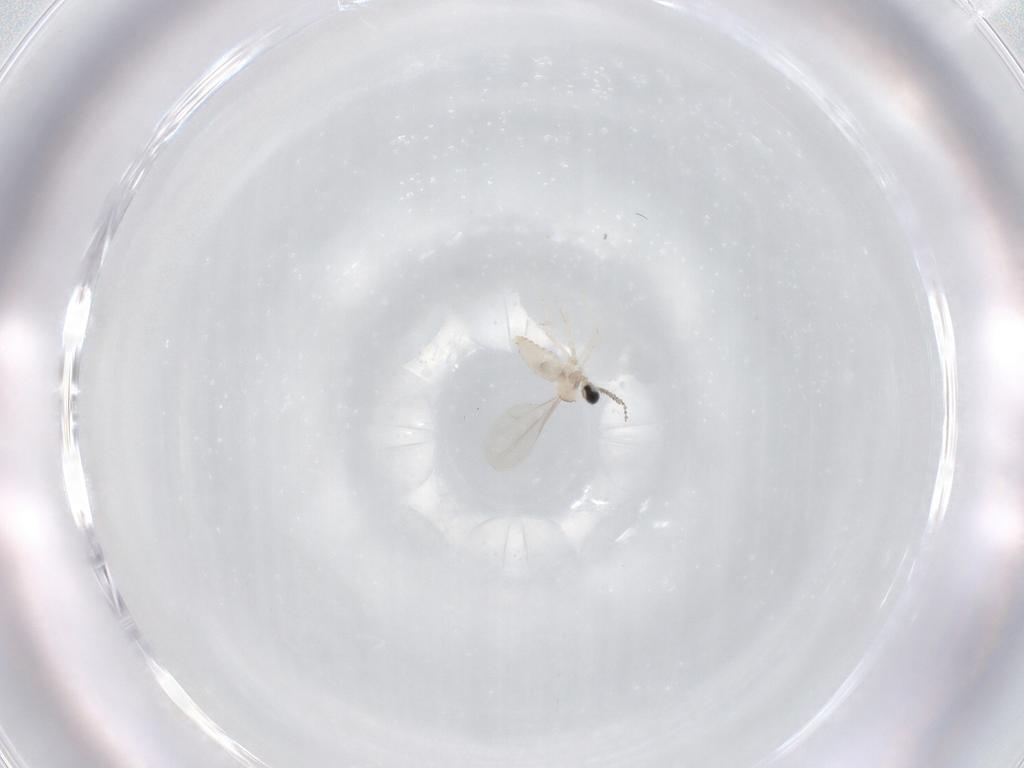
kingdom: Animalia
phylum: Arthropoda
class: Insecta
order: Diptera
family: Cecidomyiidae
